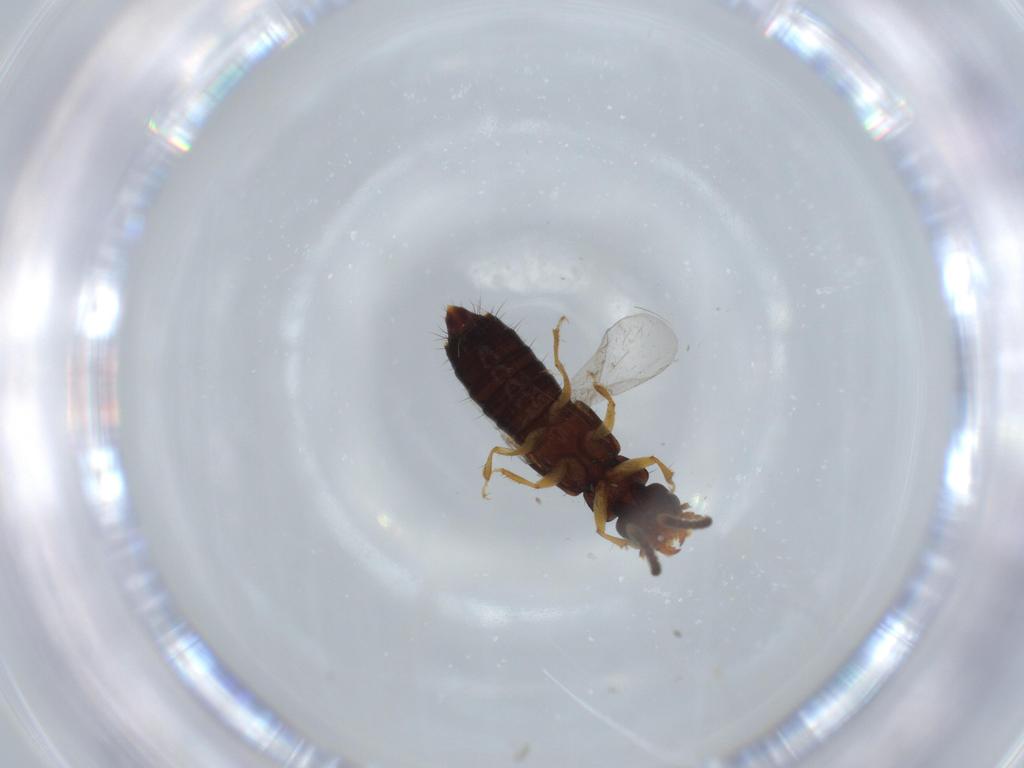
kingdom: Animalia
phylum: Arthropoda
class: Insecta
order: Coleoptera
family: Staphylinidae
